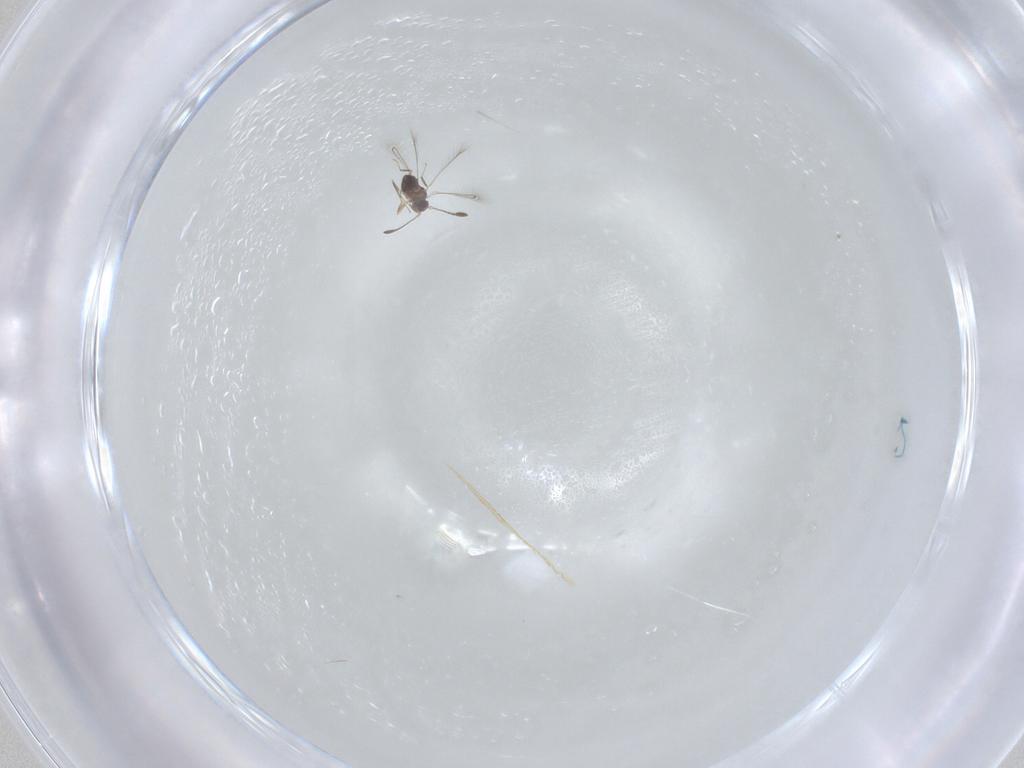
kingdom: Animalia
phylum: Arthropoda
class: Insecta
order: Hymenoptera
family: Mymaridae
